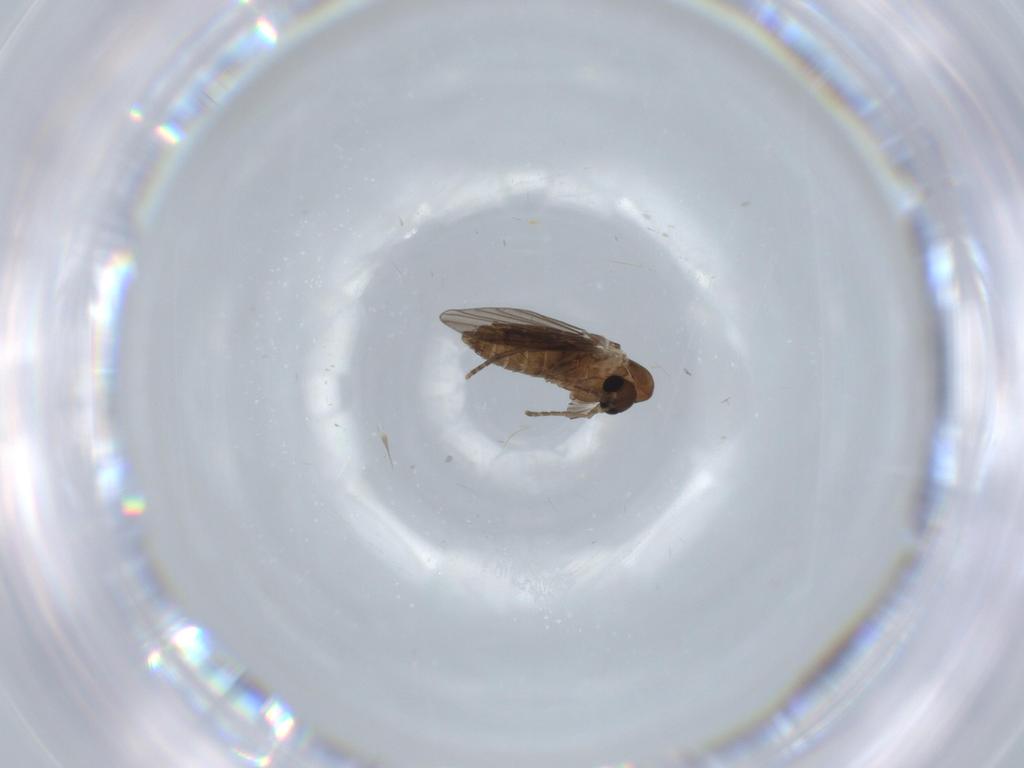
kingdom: Animalia
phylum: Arthropoda
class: Insecta
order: Diptera
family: Psychodidae
